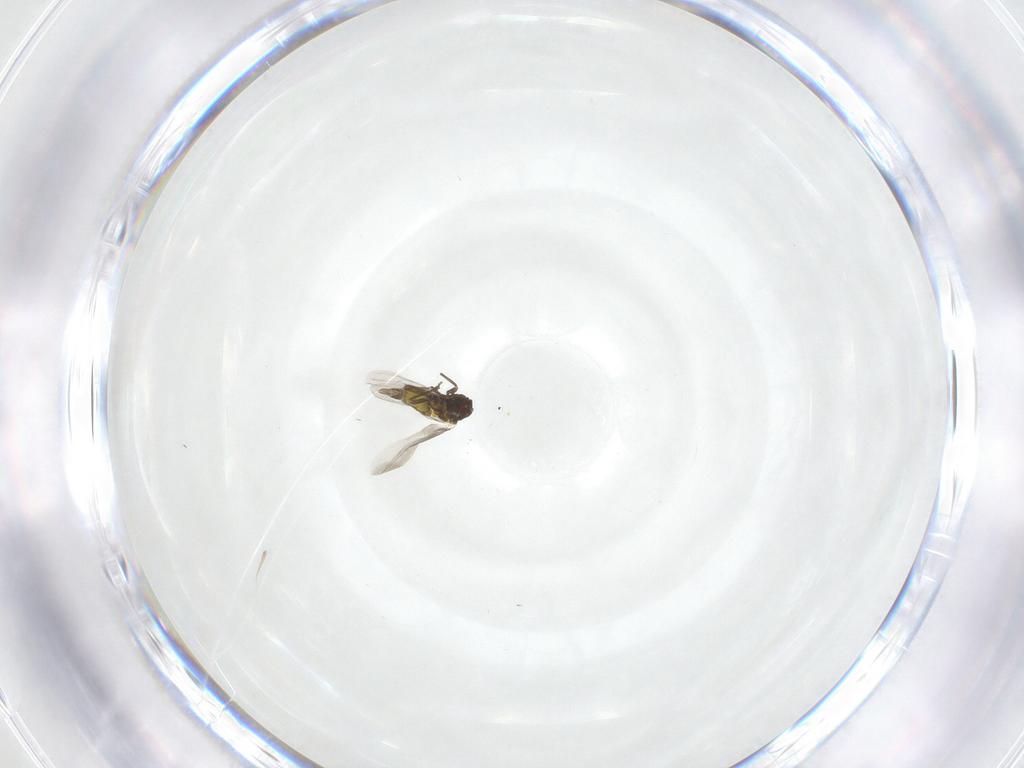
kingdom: Animalia
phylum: Arthropoda
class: Insecta
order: Hemiptera
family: Aleyrodidae
